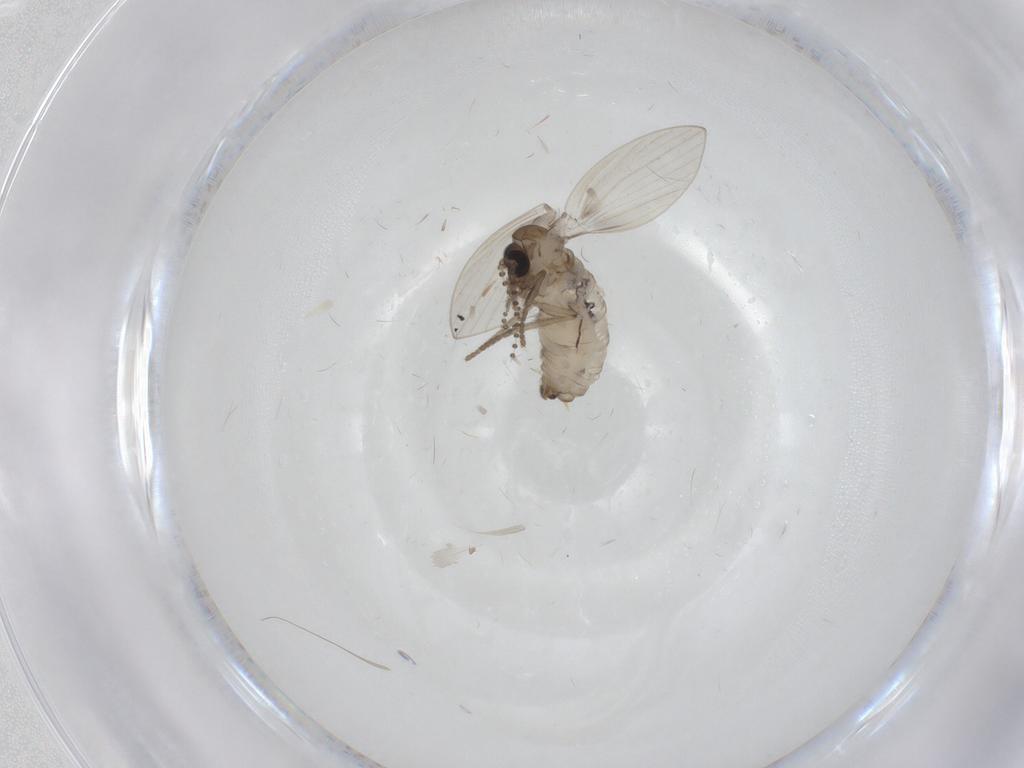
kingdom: Animalia
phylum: Arthropoda
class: Insecta
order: Diptera
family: Psychodidae
